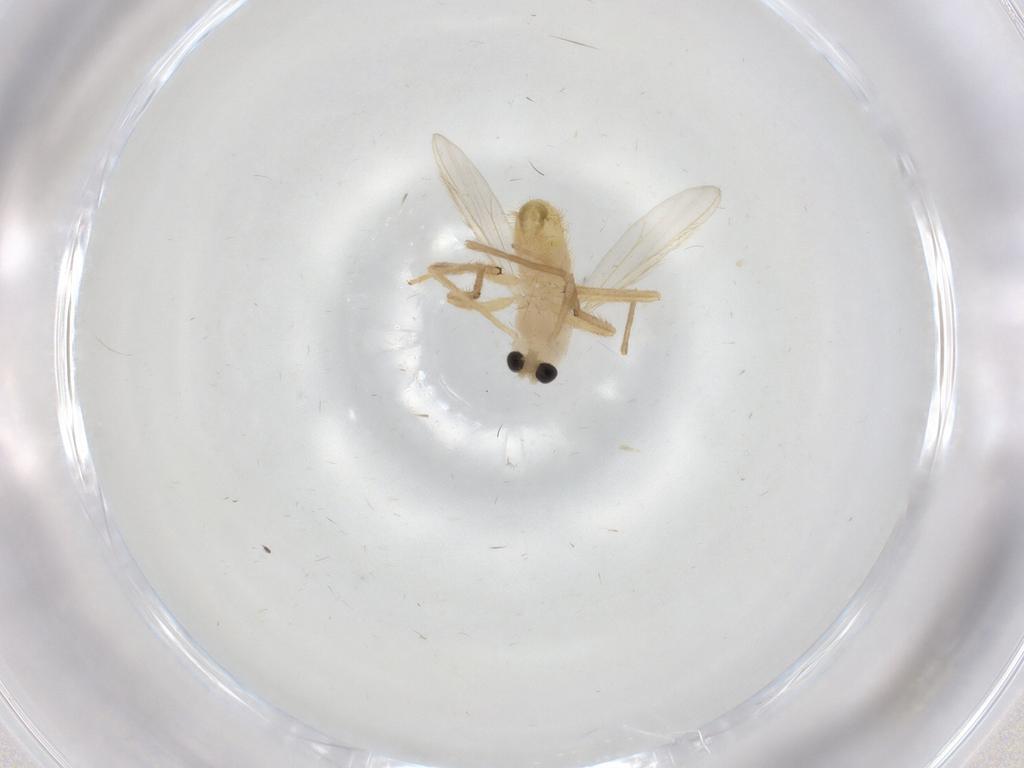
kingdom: Animalia
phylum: Arthropoda
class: Insecta
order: Diptera
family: Chironomidae
